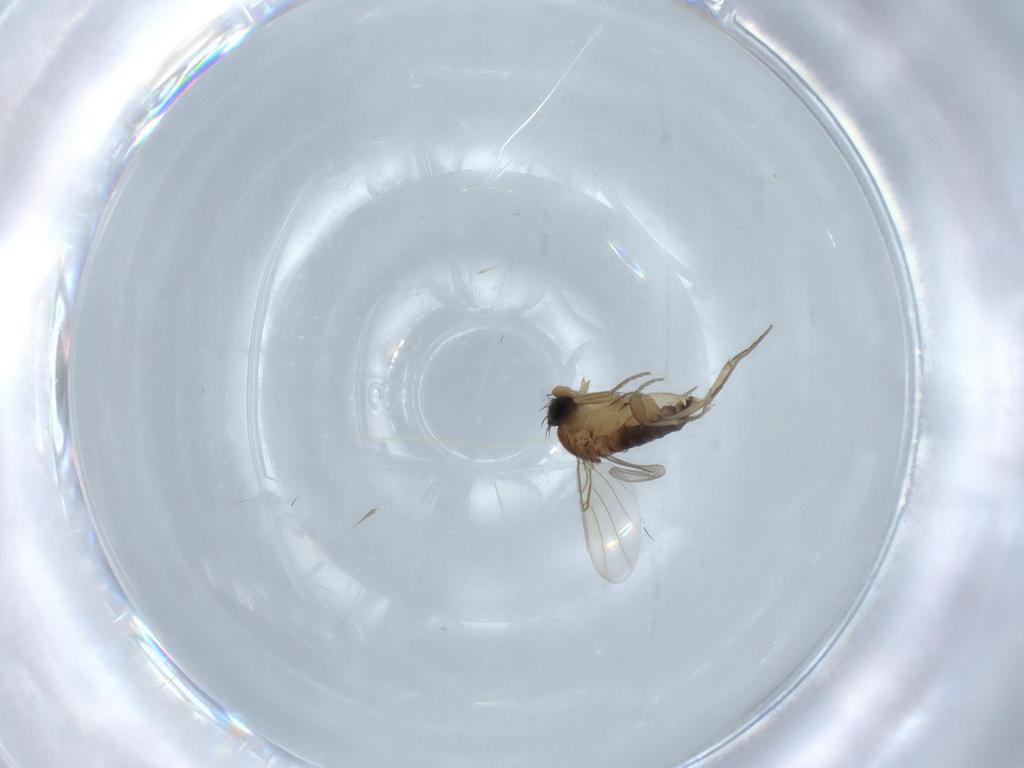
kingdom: Animalia
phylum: Arthropoda
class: Insecta
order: Diptera
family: Phoridae
